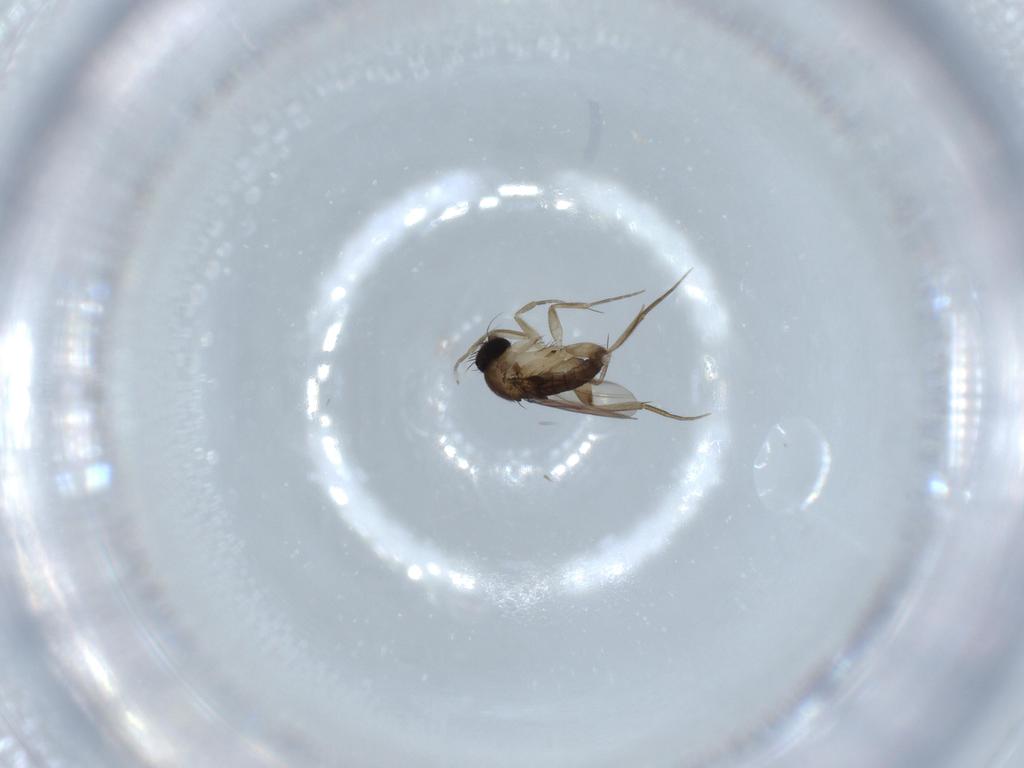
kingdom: Animalia
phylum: Arthropoda
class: Insecta
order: Diptera
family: Phoridae
